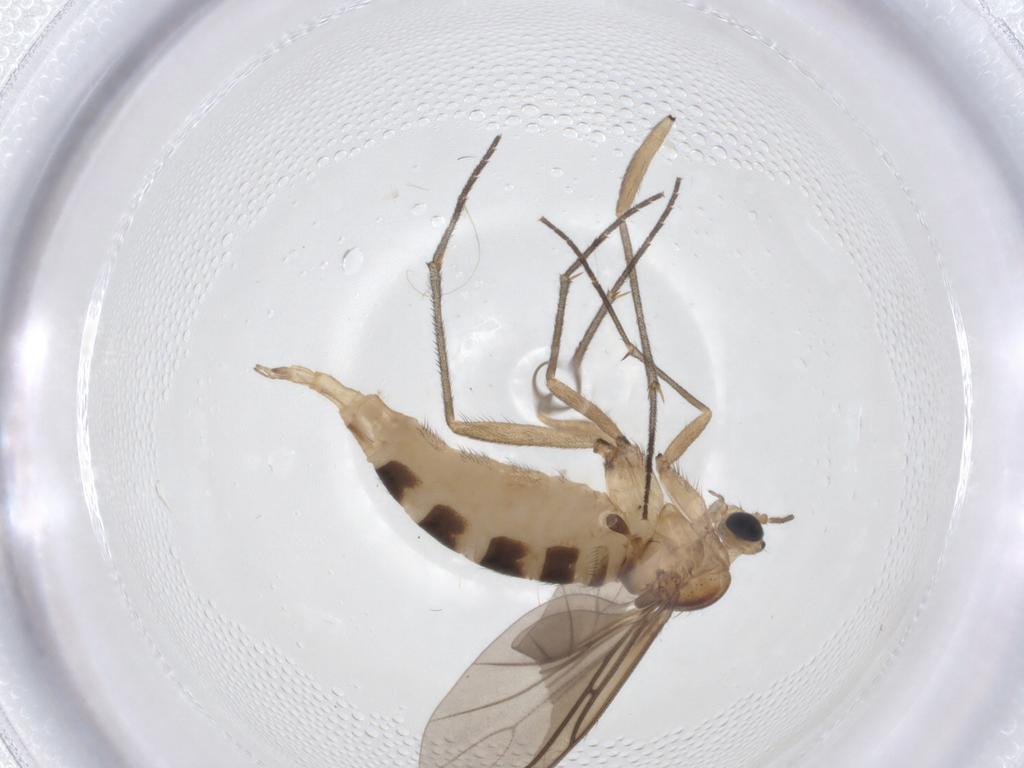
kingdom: Animalia
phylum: Arthropoda
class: Insecta
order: Diptera
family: Sciaridae
